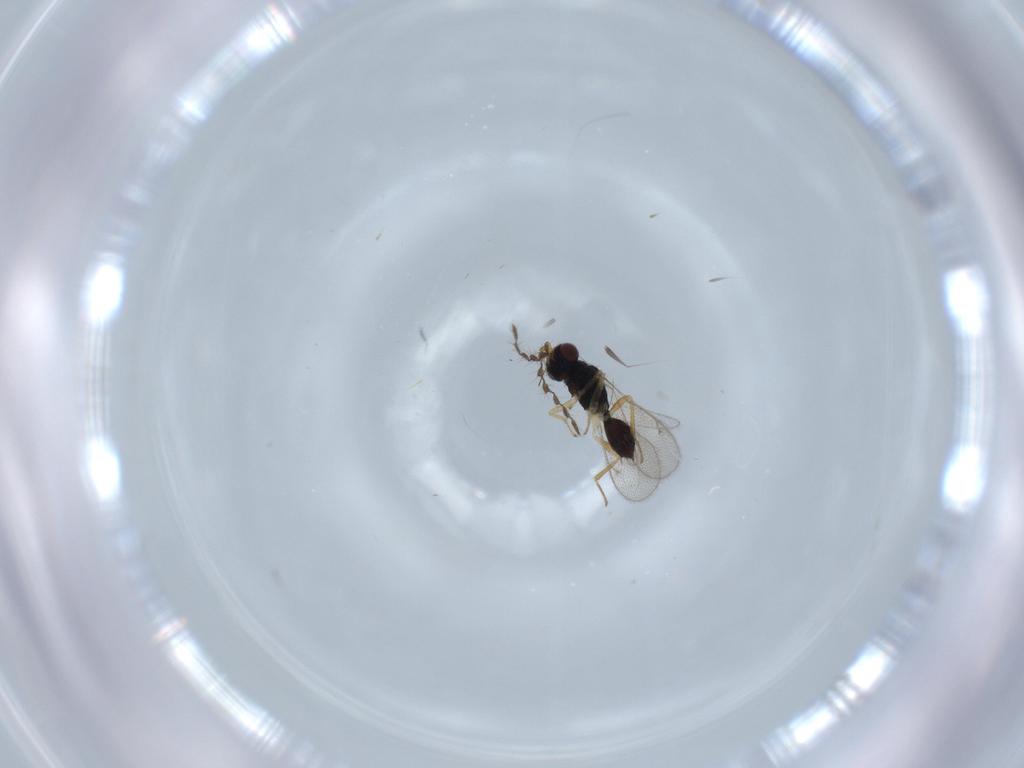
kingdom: Animalia
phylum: Arthropoda
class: Insecta
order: Hymenoptera
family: Eulophidae
